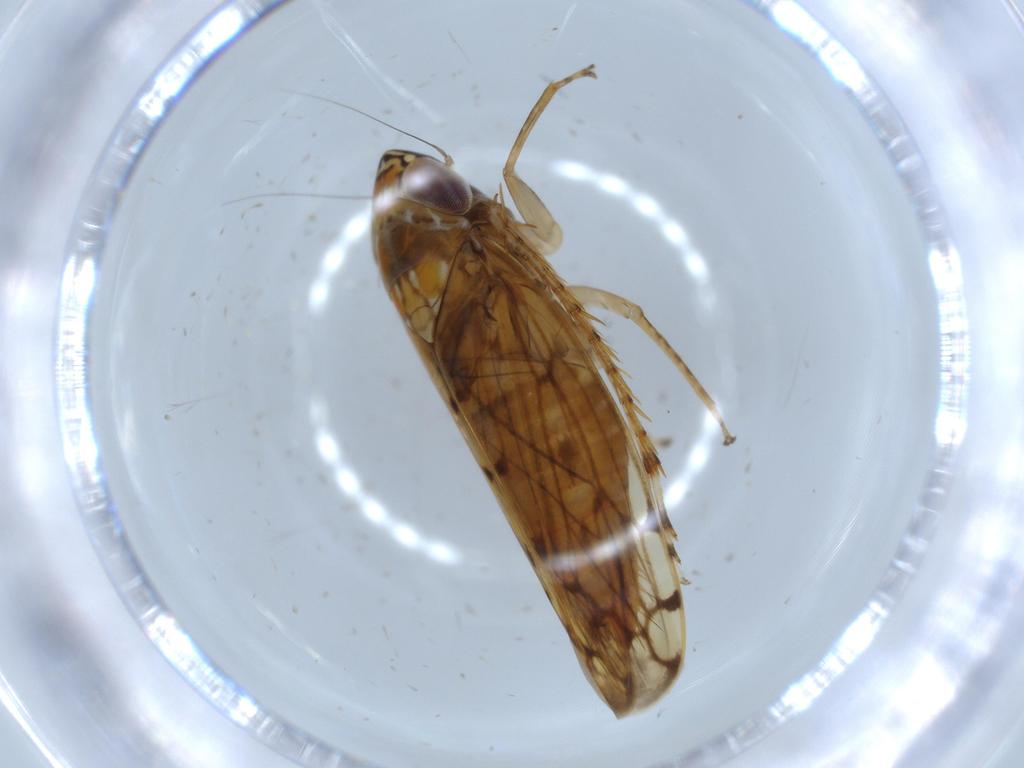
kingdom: Animalia
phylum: Arthropoda
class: Insecta
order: Hemiptera
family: Cicadellidae
